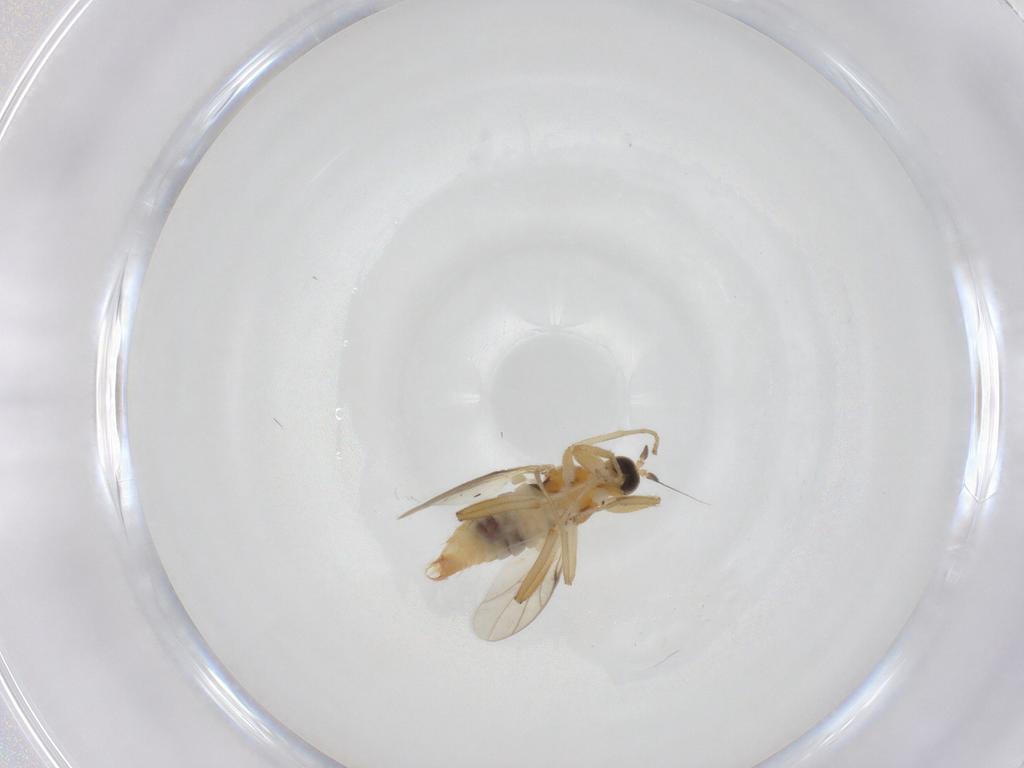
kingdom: Animalia
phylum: Arthropoda
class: Insecta
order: Diptera
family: Hybotidae
